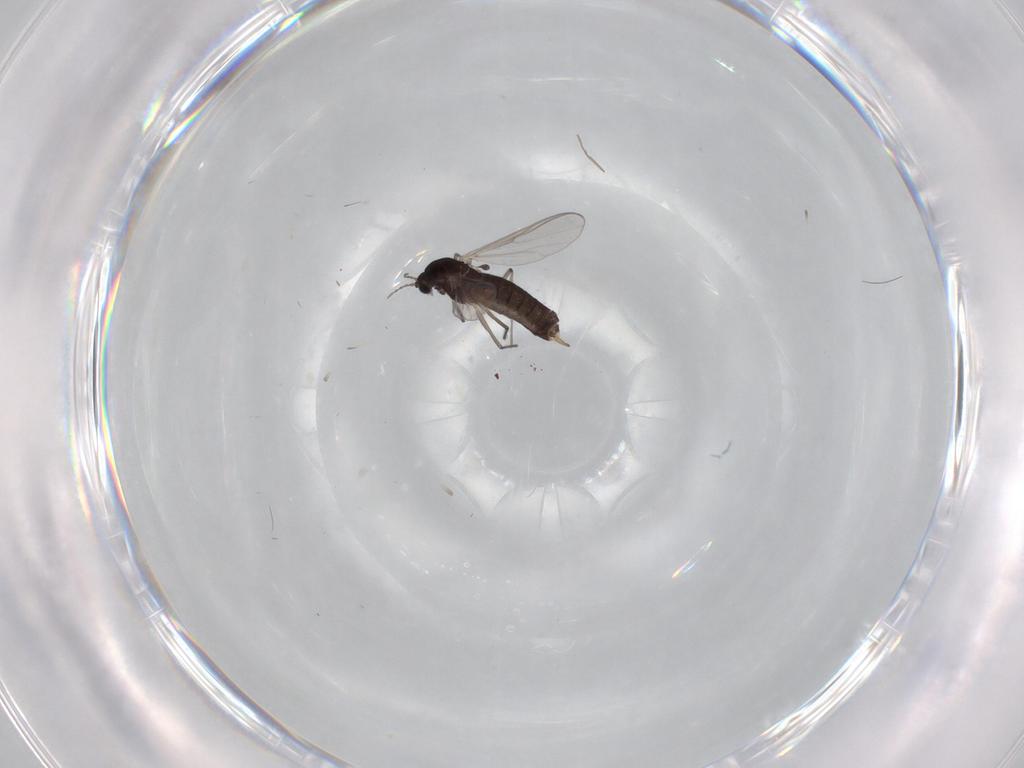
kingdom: Animalia
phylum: Arthropoda
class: Insecta
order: Diptera
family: Chironomidae
